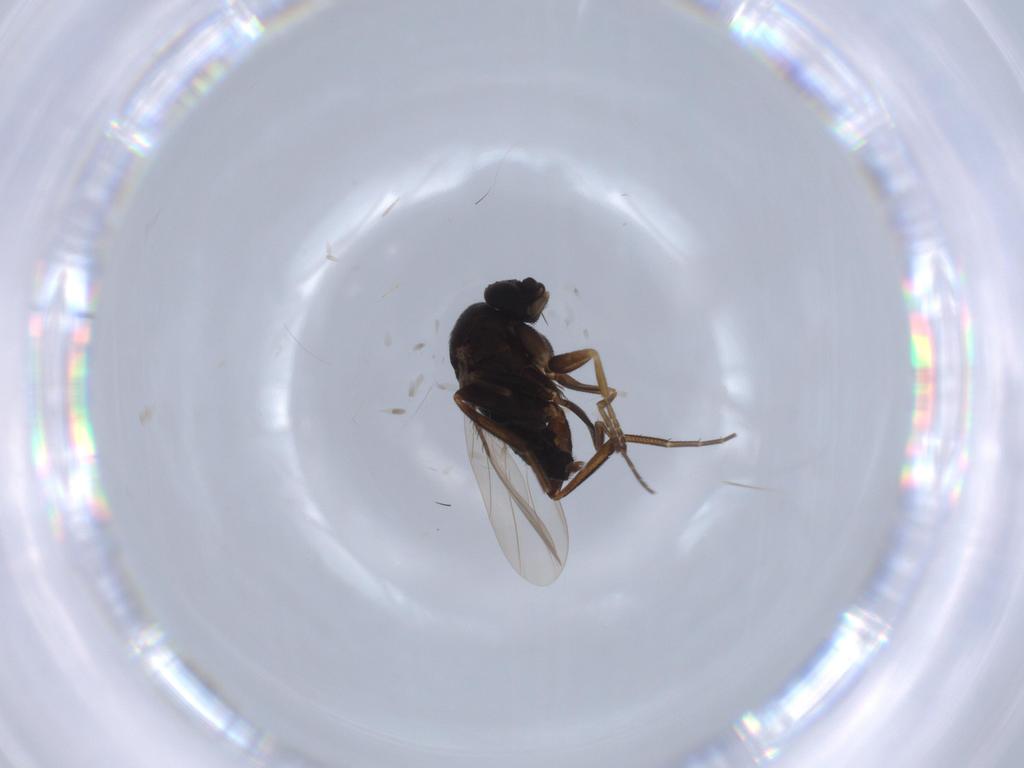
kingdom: Animalia
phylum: Arthropoda
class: Insecta
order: Diptera
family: Phoridae
